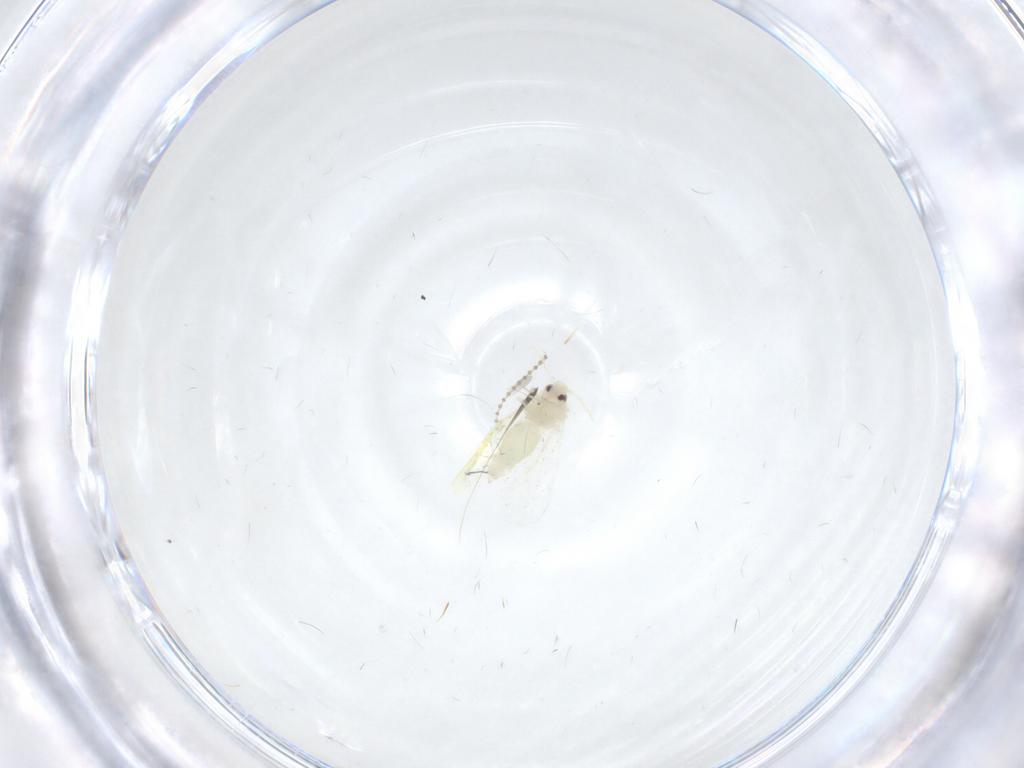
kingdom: Animalia
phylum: Arthropoda
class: Insecta
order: Hemiptera
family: Aleyrodidae
